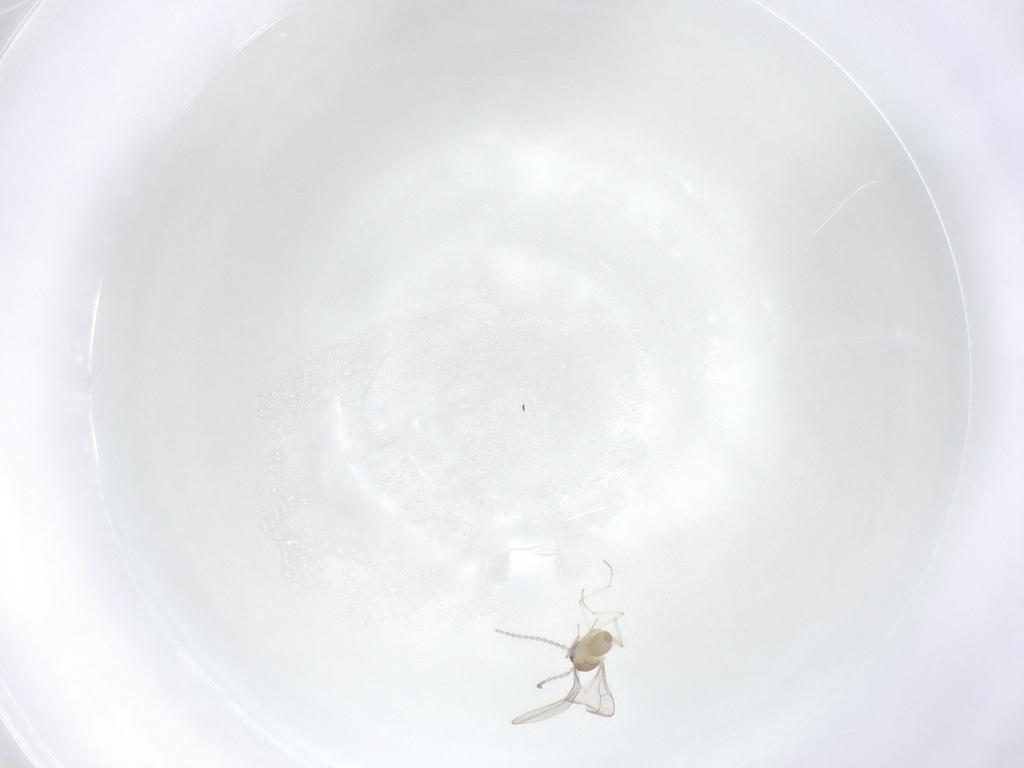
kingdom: Animalia
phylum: Arthropoda
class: Insecta
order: Diptera
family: Cecidomyiidae
